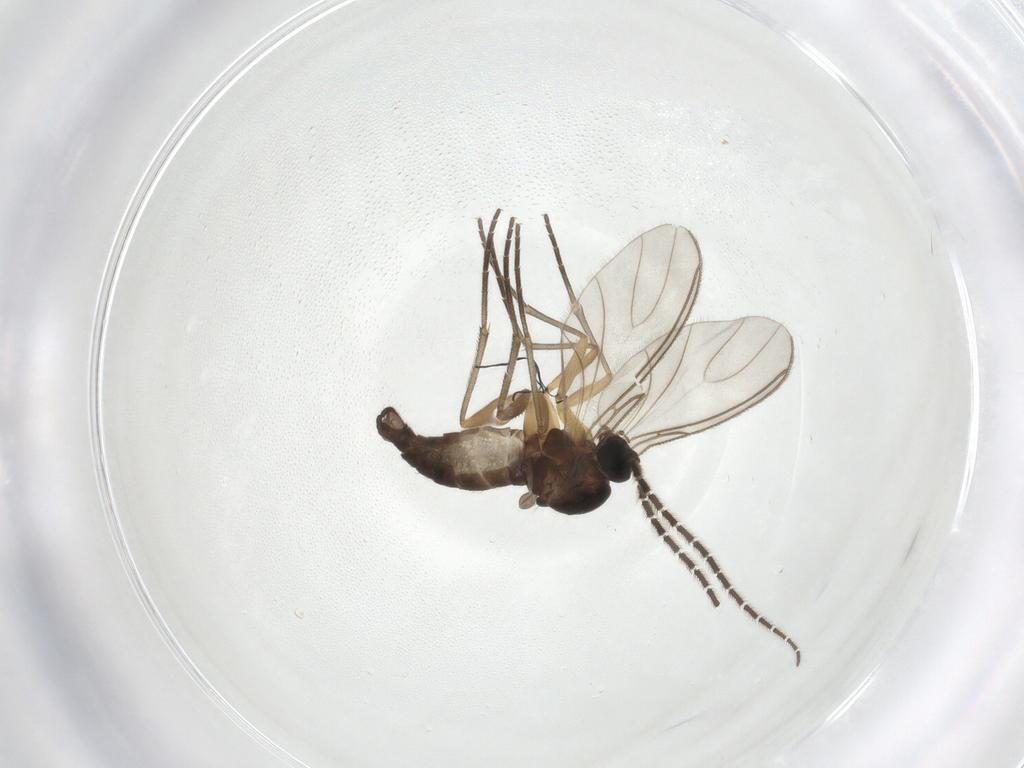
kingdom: Animalia
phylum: Arthropoda
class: Insecta
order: Diptera
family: Sciaridae
